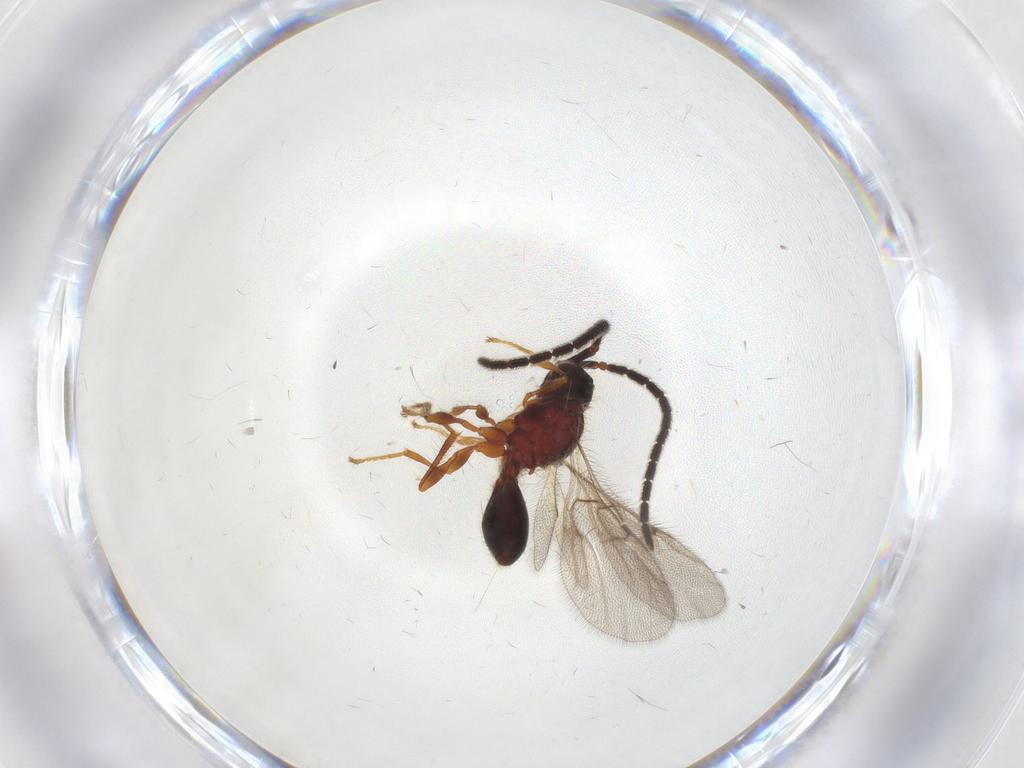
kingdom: Animalia
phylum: Arthropoda
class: Insecta
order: Hymenoptera
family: Diapriidae
